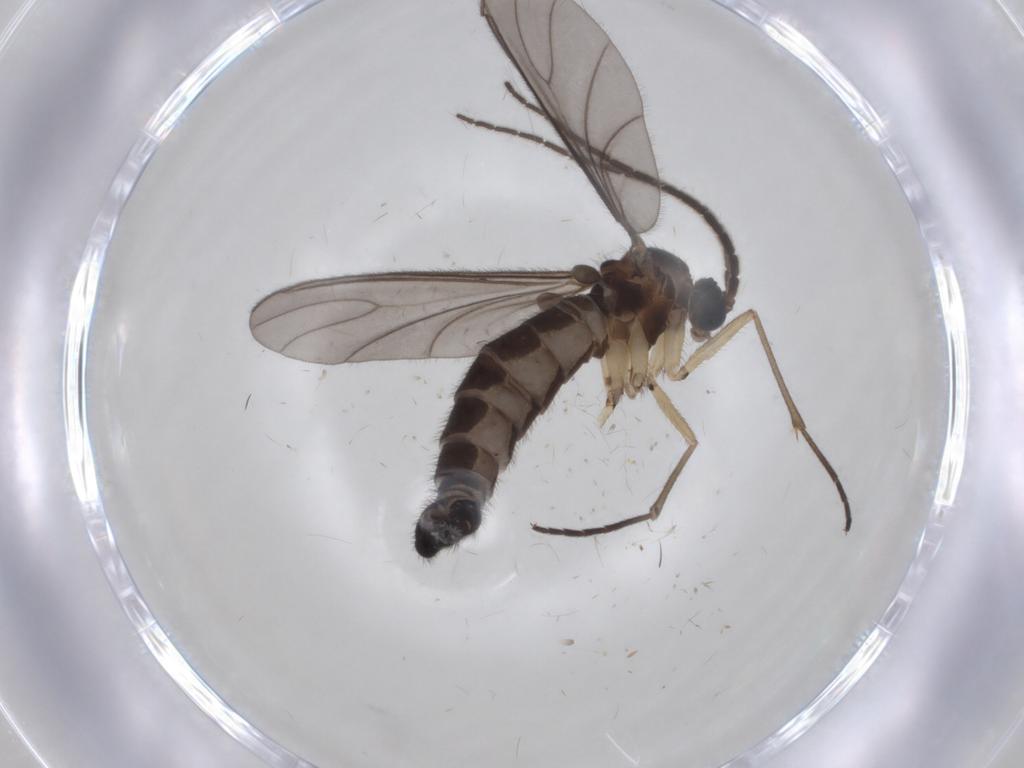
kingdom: Animalia
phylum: Arthropoda
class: Insecta
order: Diptera
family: Sciaridae
